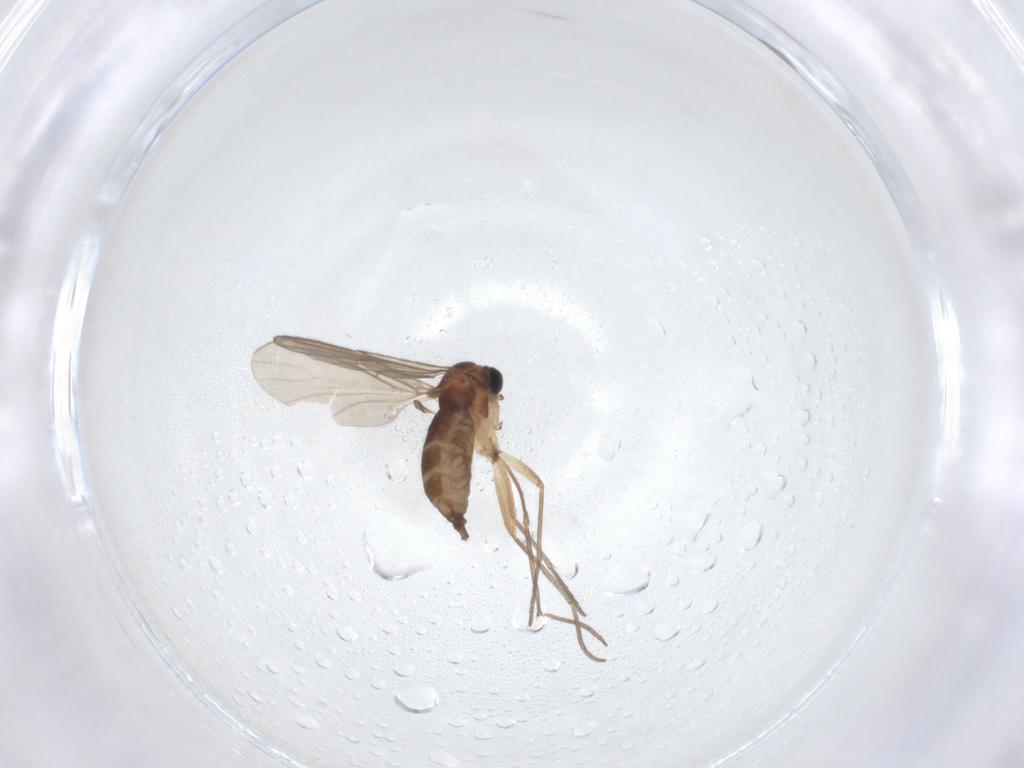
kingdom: Animalia
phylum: Arthropoda
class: Insecta
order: Diptera
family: Sciaridae
